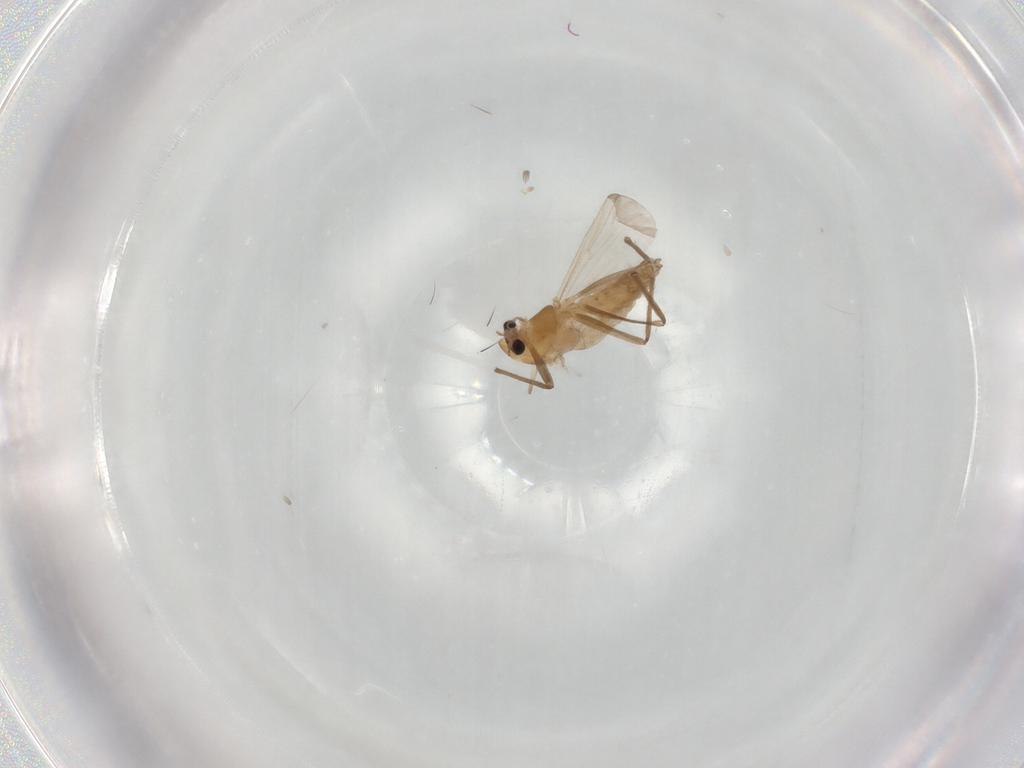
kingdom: Animalia
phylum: Arthropoda
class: Insecta
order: Diptera
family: Chironomidae
